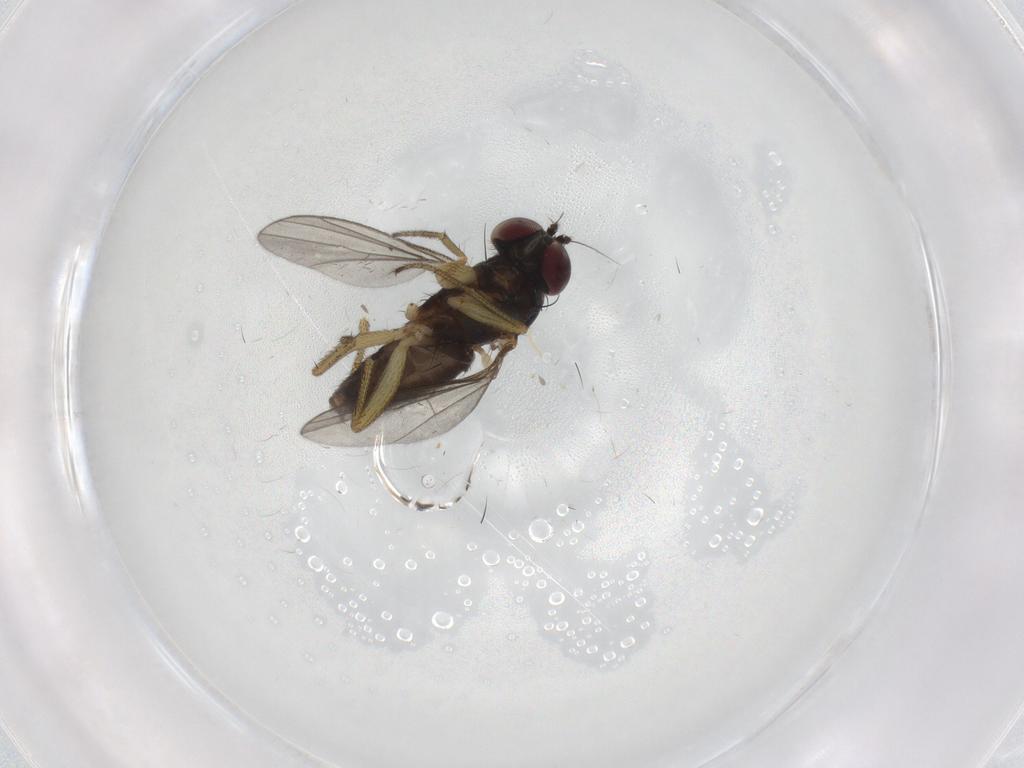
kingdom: Animalia
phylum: Arthropoda
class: Insecta
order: Diptera
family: Dolichopodidae
